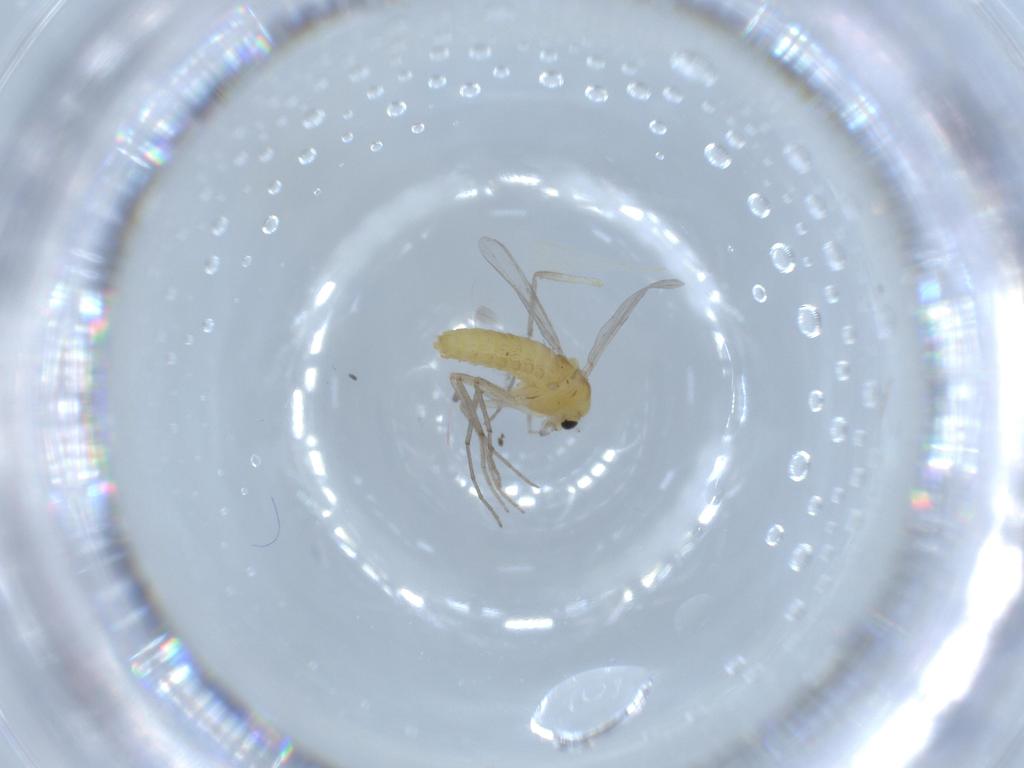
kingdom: Animalia
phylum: Arthropoda
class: Insecta
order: Diptera
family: Chironomidae
